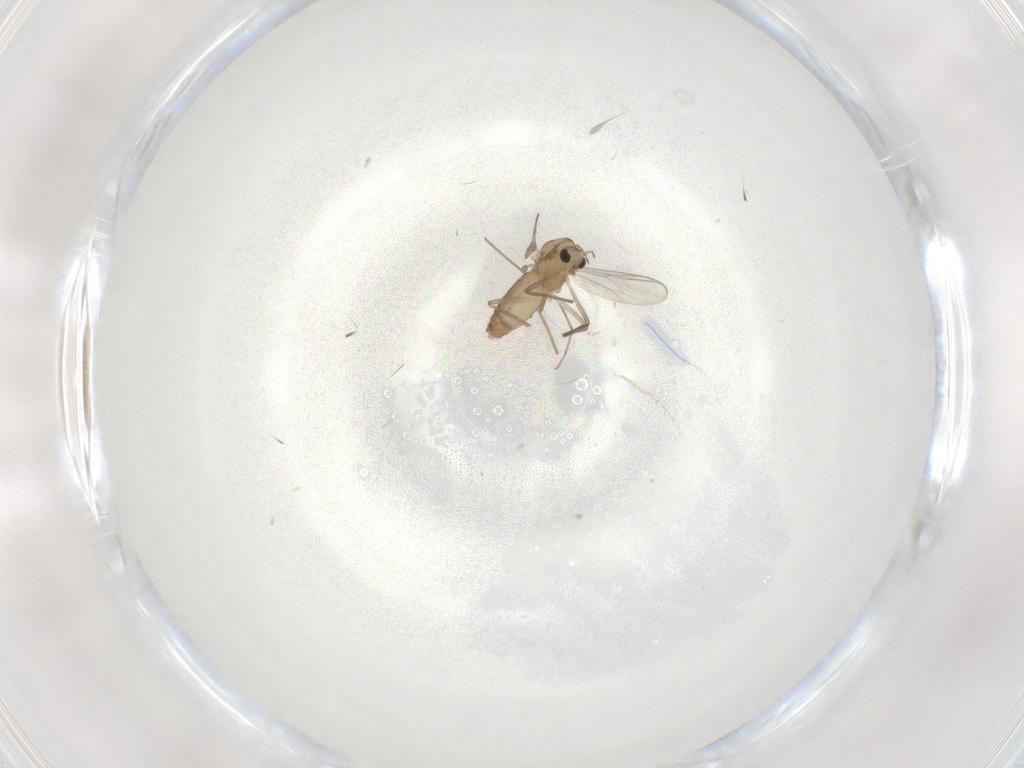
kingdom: Animalia
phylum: Arthropoda
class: Insecta
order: Diptera
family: Chironomidae
